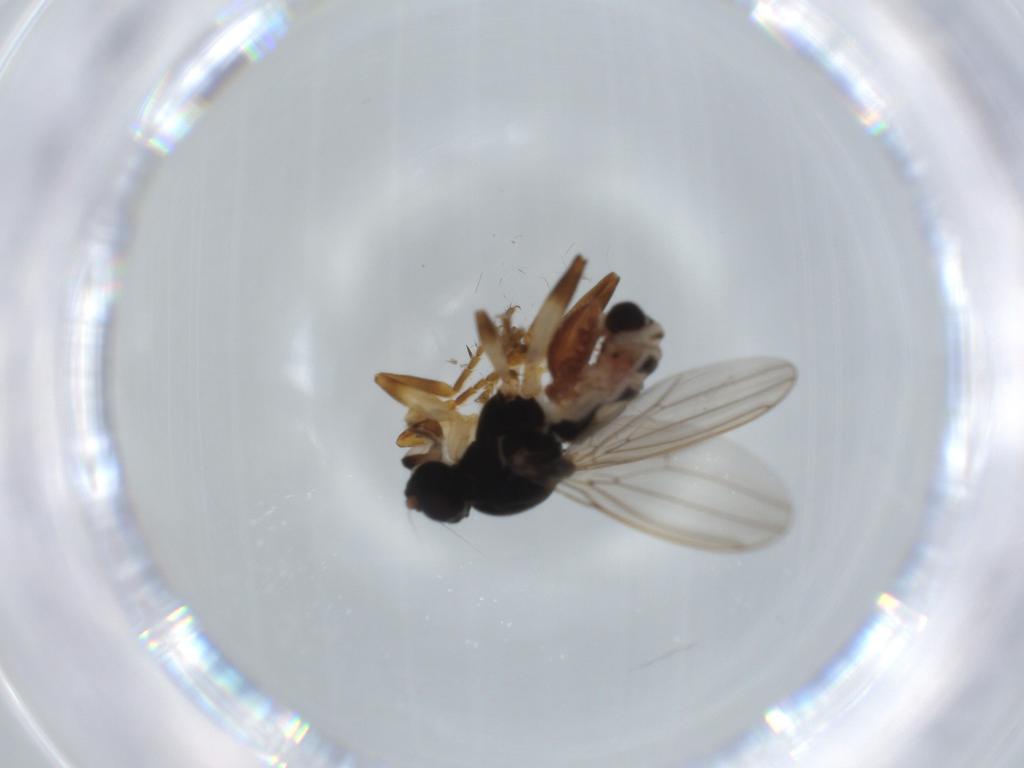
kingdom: Animalia
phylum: Arthropoda
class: Insecta
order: Diptera
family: Sphaeroceridae
